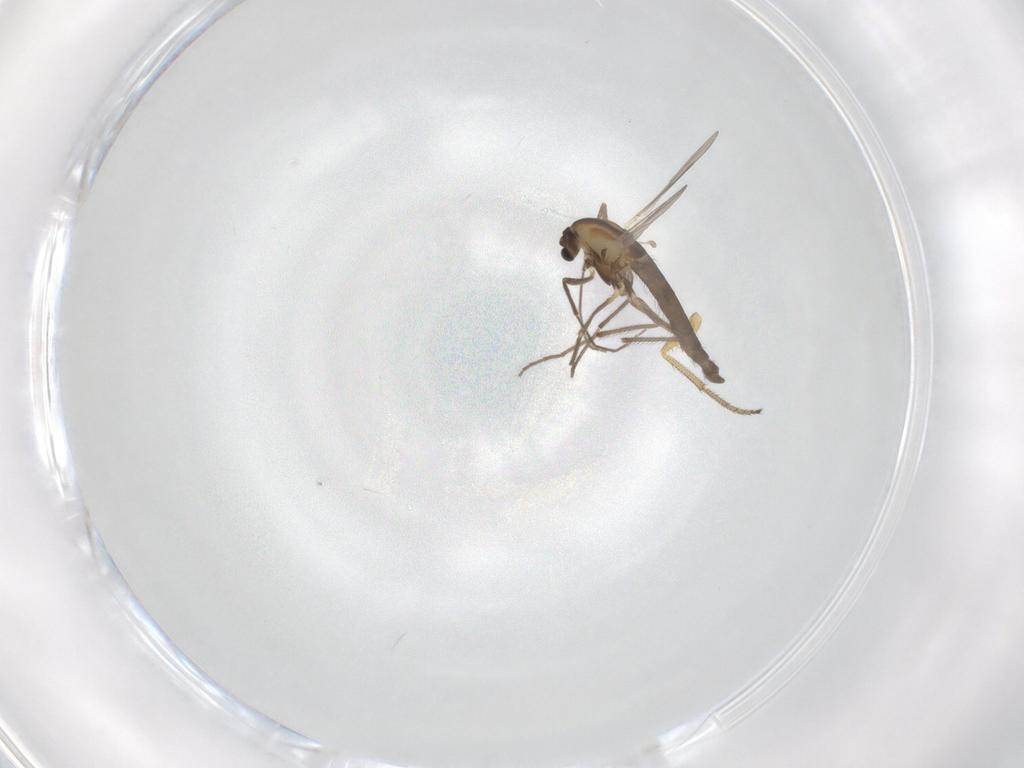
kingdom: Animalia
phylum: Arthropoda
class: Insecta
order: Diptera
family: Chironomidae
